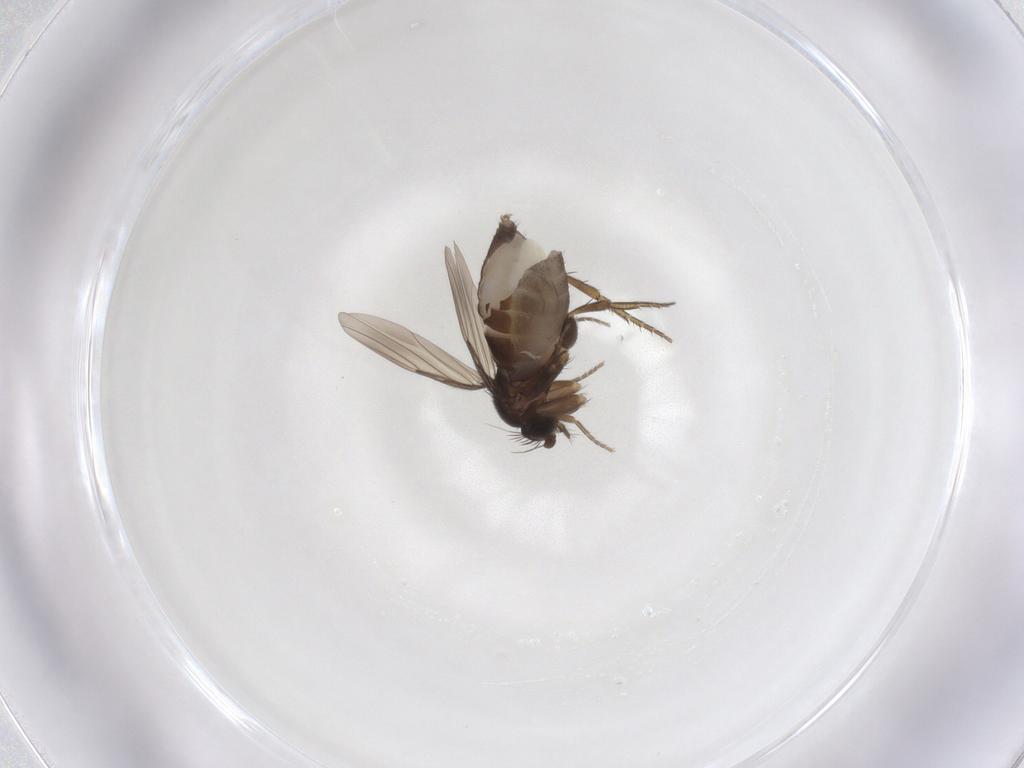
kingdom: Animalia
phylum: Arthropoda
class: Insecta
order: Diptera
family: Phoridae
